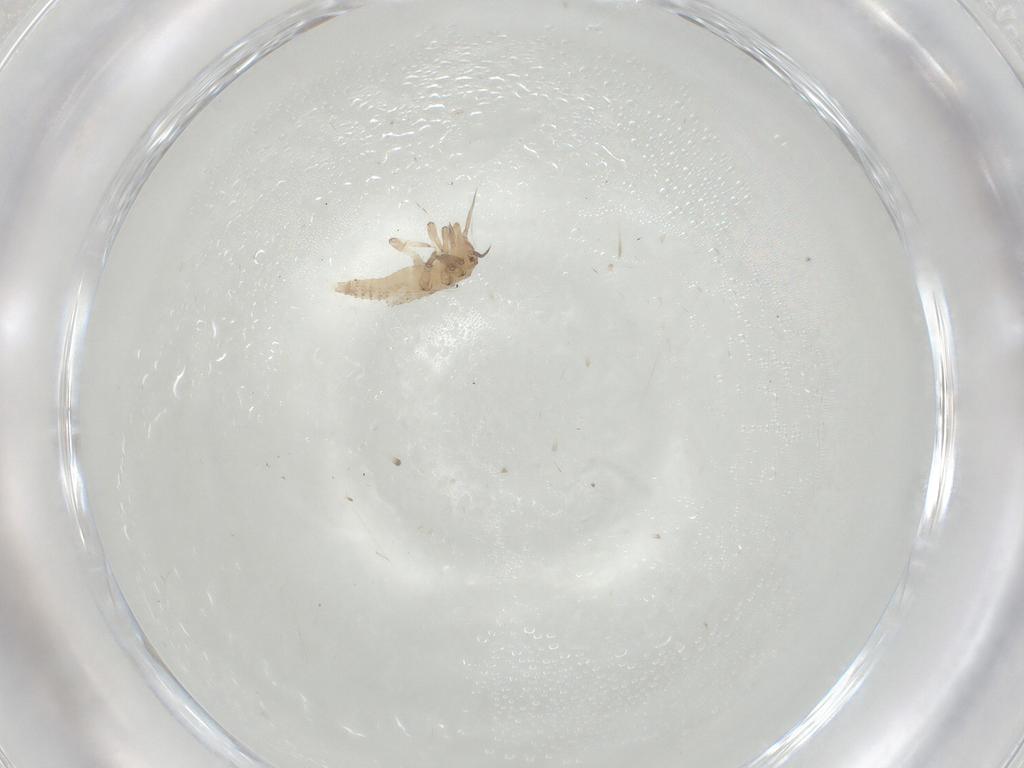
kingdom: Animalia
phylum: Arthropoda
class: Insecta
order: Neuroptera
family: Hemerobiidae
